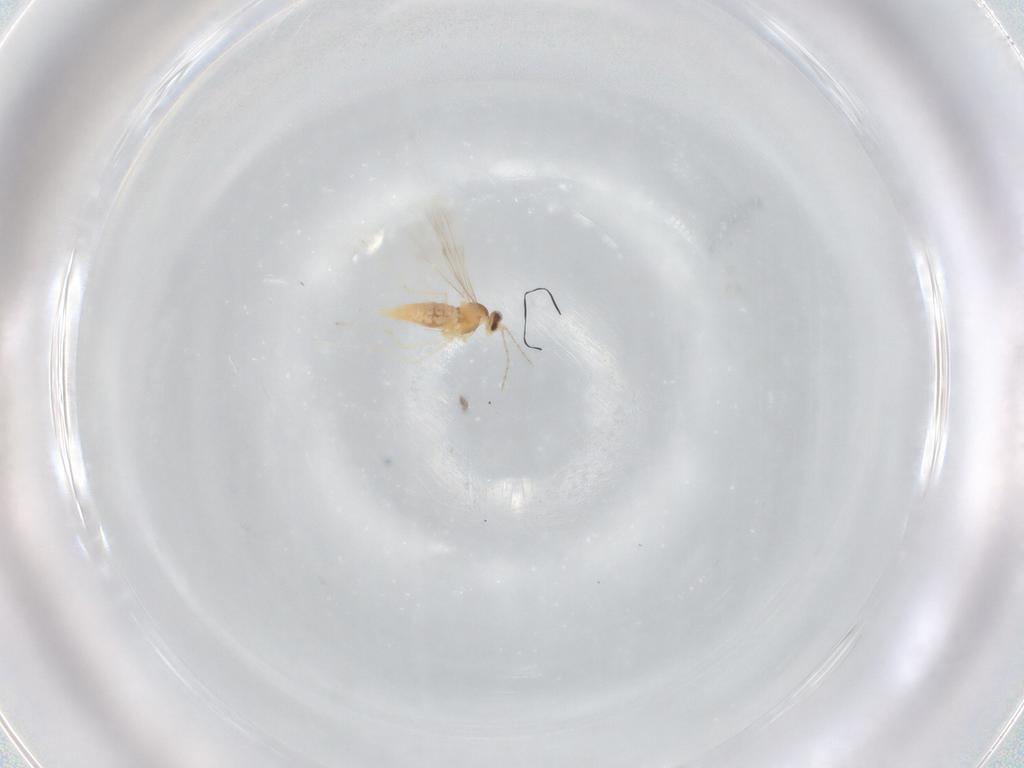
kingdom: Animalia
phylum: Arthropoda
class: Insecta
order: Diptera
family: Cecidomyiidae
